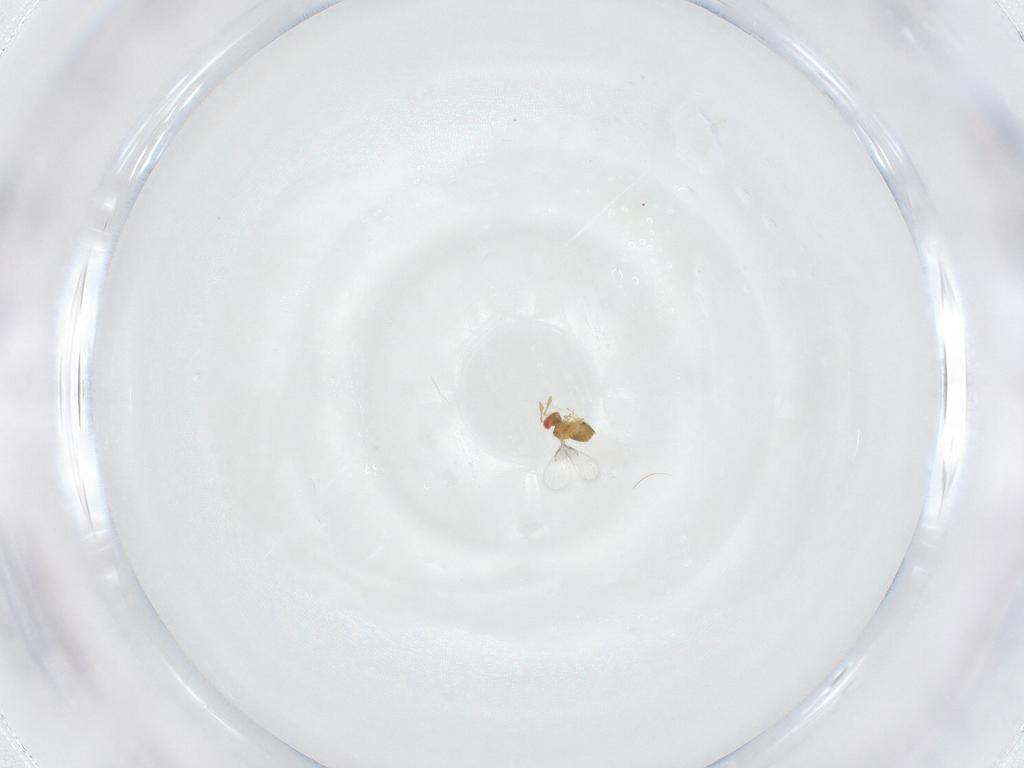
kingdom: Animalia
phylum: Arthropoda
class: Insecta
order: Hymenoptera
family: Trichogrammatidae
